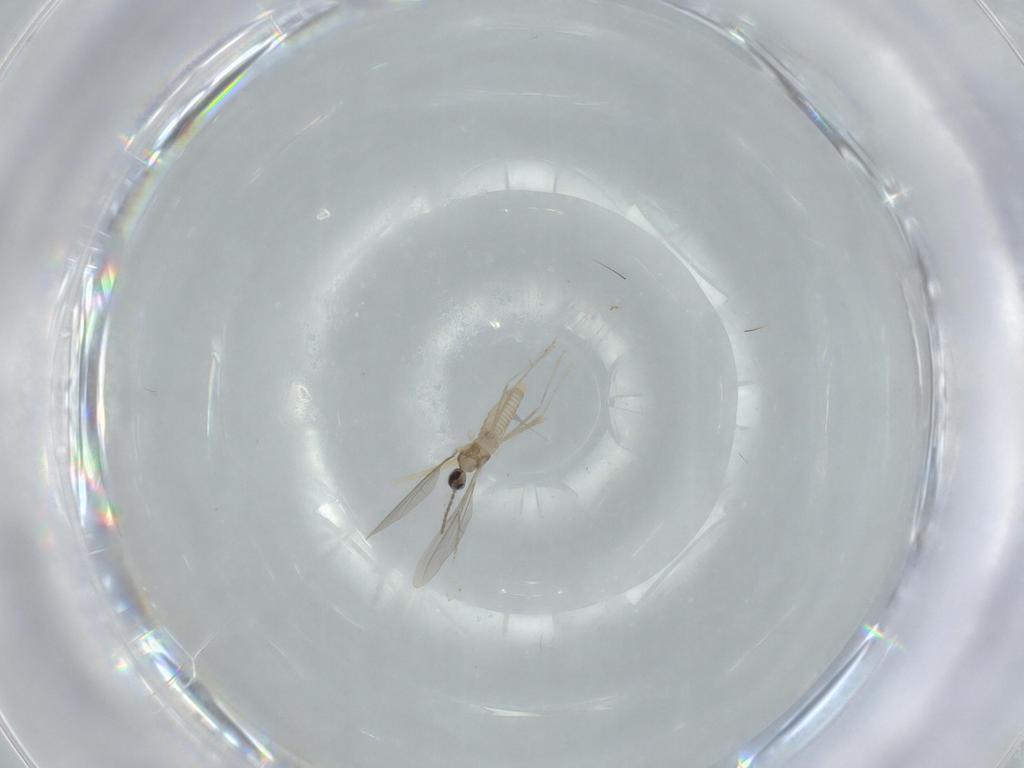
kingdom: Animalia
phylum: Arthropoda
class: Insecta
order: Diptera
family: Cecidomyiidae
